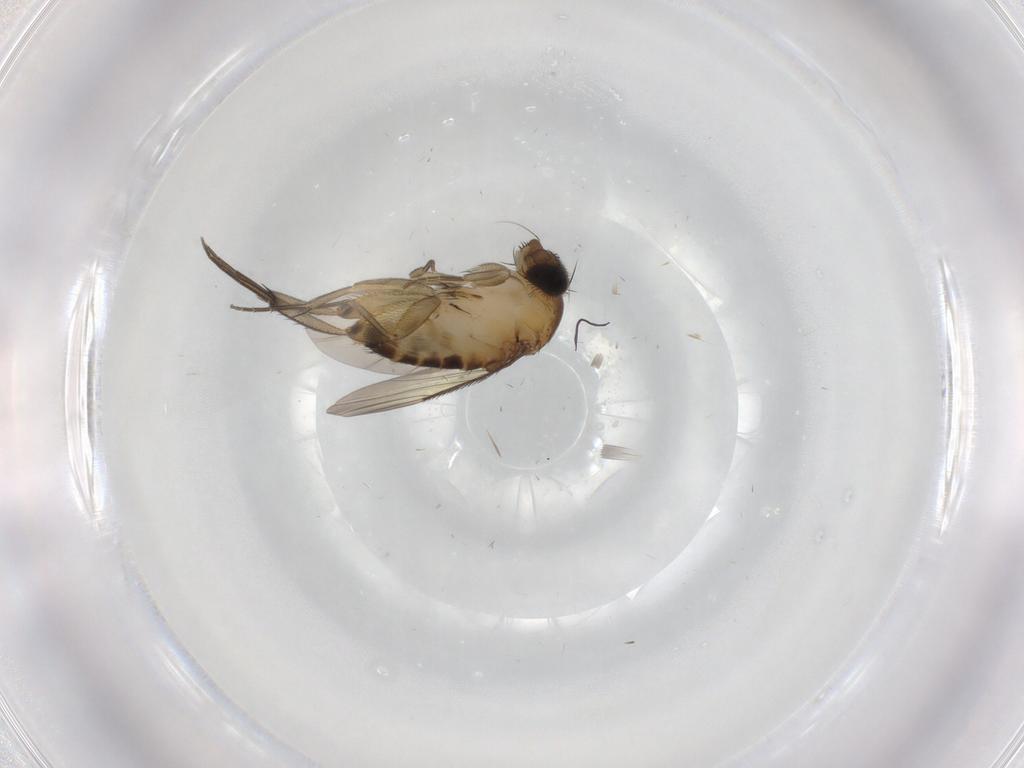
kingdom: Animalia
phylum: Arthropoda
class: Insecta
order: Diptera
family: Phoridae
